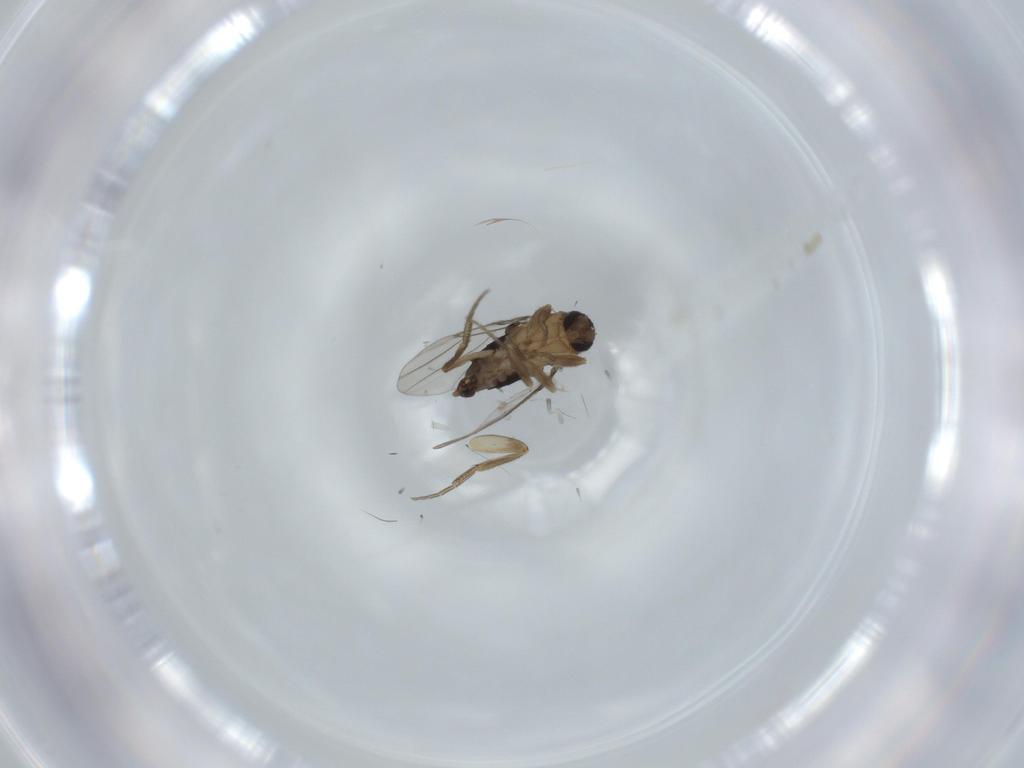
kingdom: Animalia
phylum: Arthropoda
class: Insecta
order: Diptera
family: Phoridae
